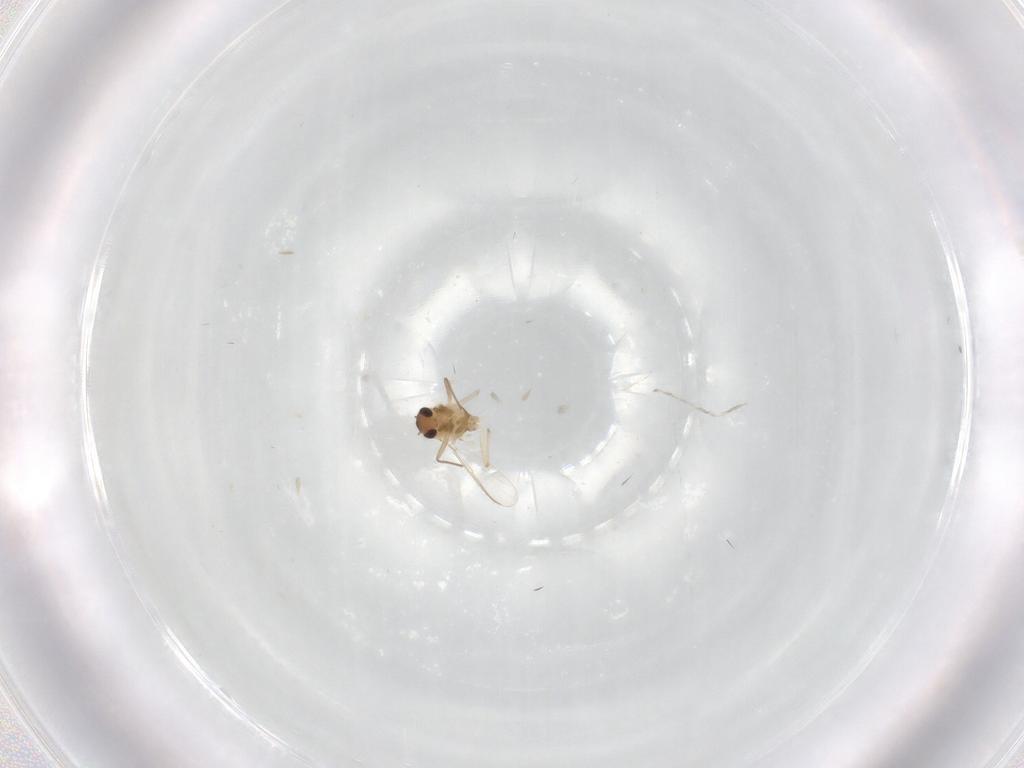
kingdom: Animalia
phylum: Arthropoda
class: Insecta
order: Diptera
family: Ceratopogonidae
